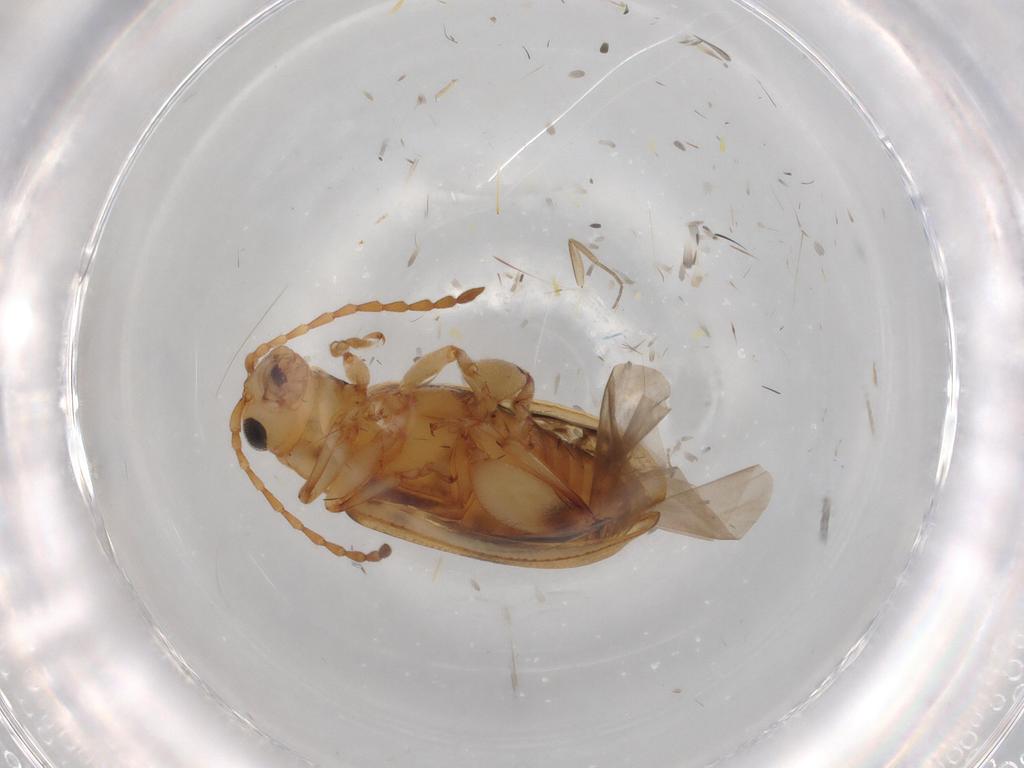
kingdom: Animalia
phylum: Arthropoda
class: Insecta
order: Coleoptera
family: Chrysomelidae
